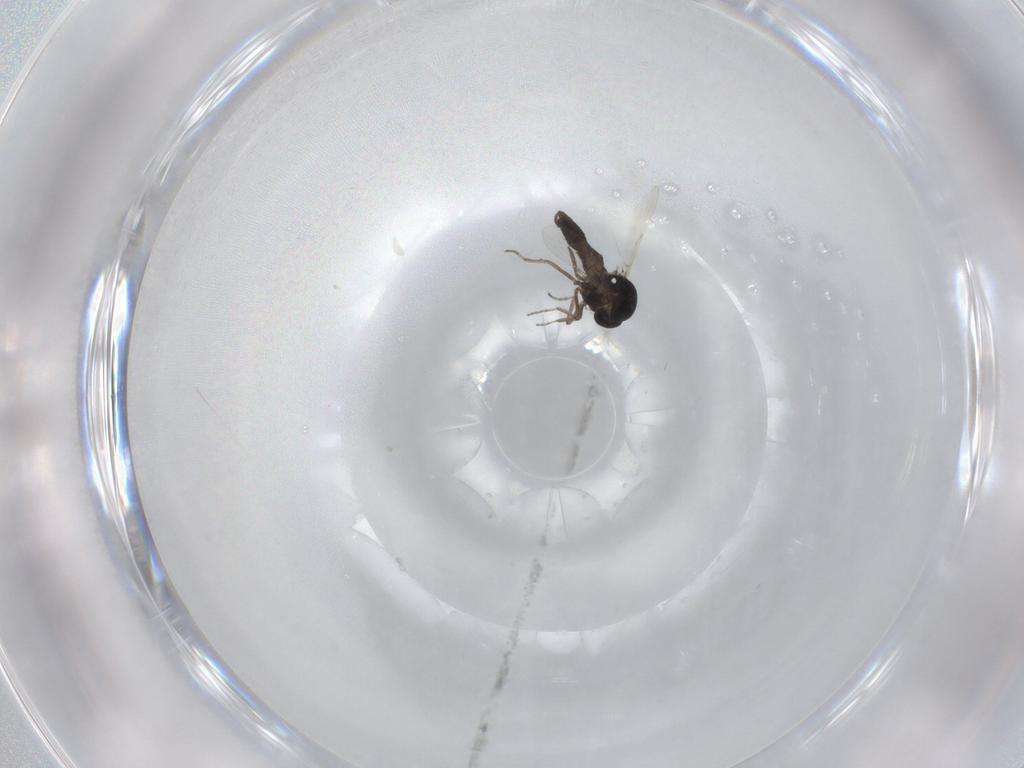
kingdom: Animalia
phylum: Arthropoda
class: Insecta
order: Diptera
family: Ceratopogonidae
